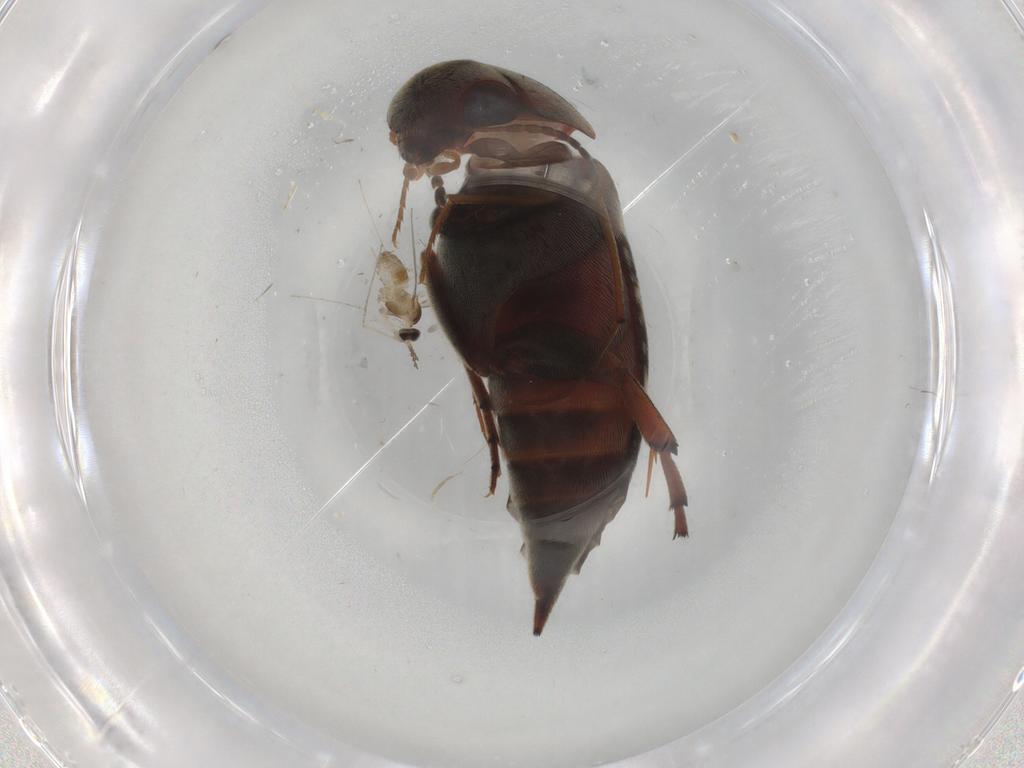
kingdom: Animalia
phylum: Arthropoda
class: Insecta
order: Coleoptera
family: Mordellidae
